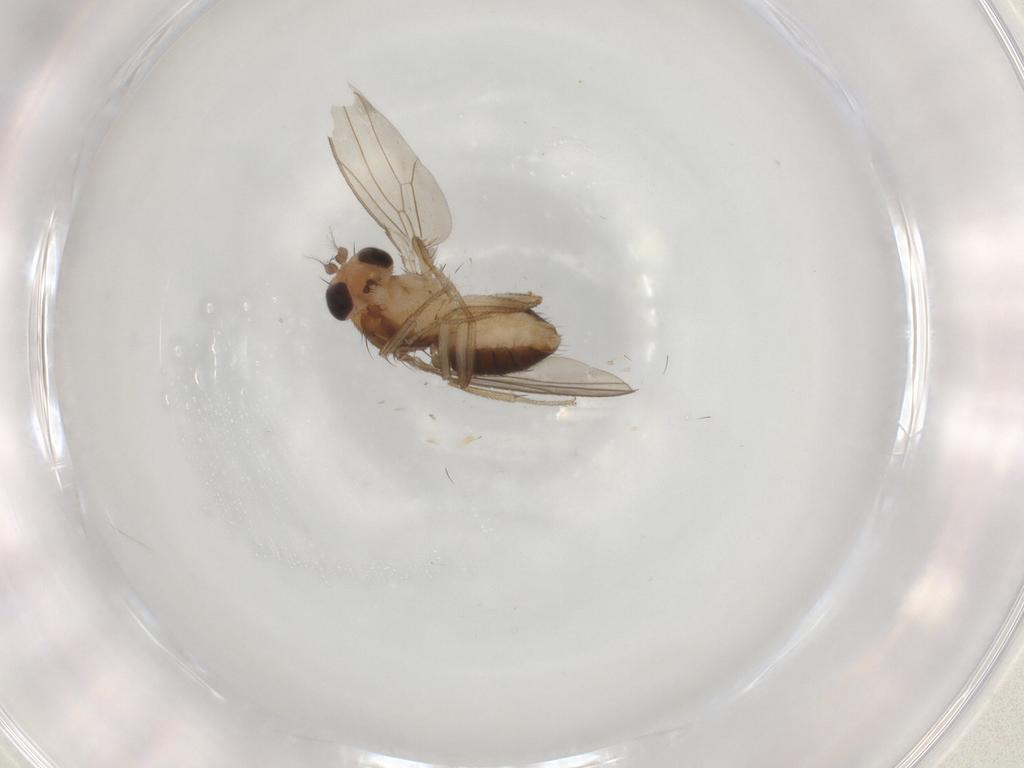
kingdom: Animalia
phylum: Arthropoda
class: Insecta
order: Diptera
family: Drosophilidae
